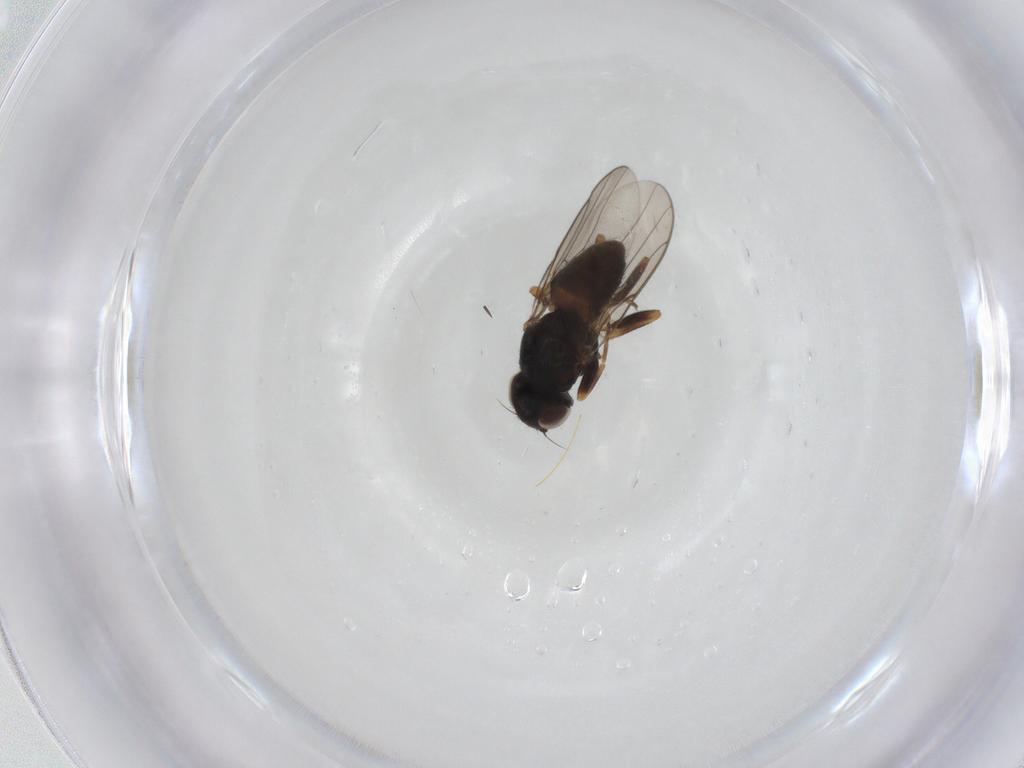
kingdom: Animalia
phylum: Arthropoda
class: Insecta
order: Diptera
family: Chloropidae
